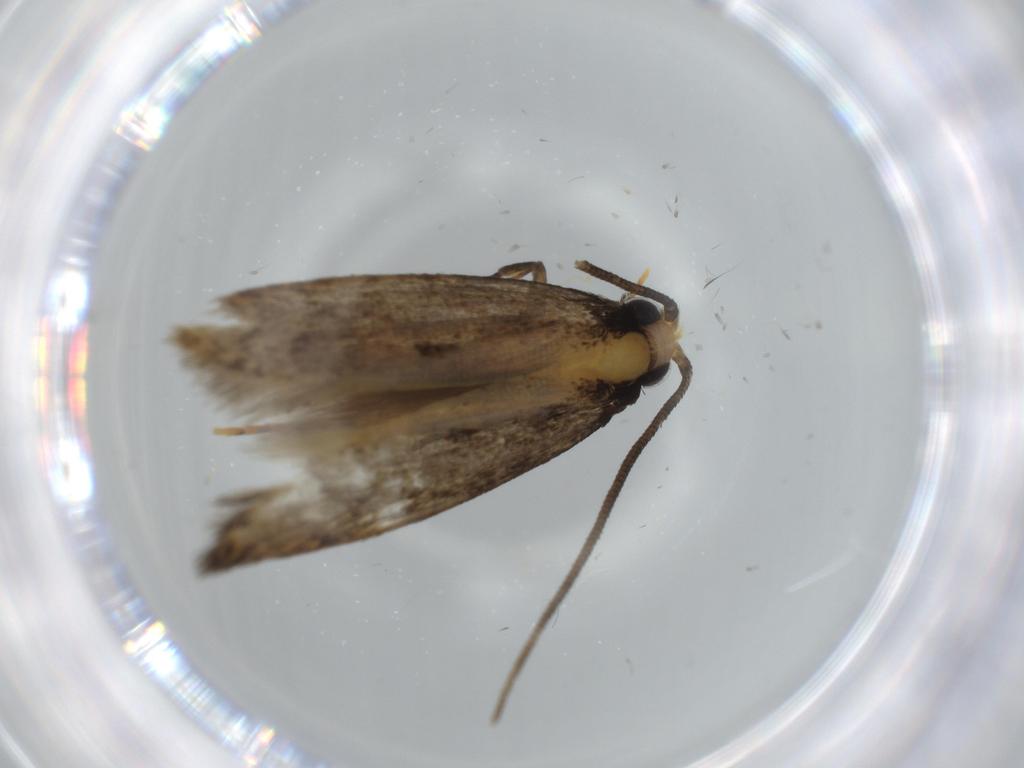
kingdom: Animalia
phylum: Arthropoda
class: Insecta
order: Lepidoptera
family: Tineidae
